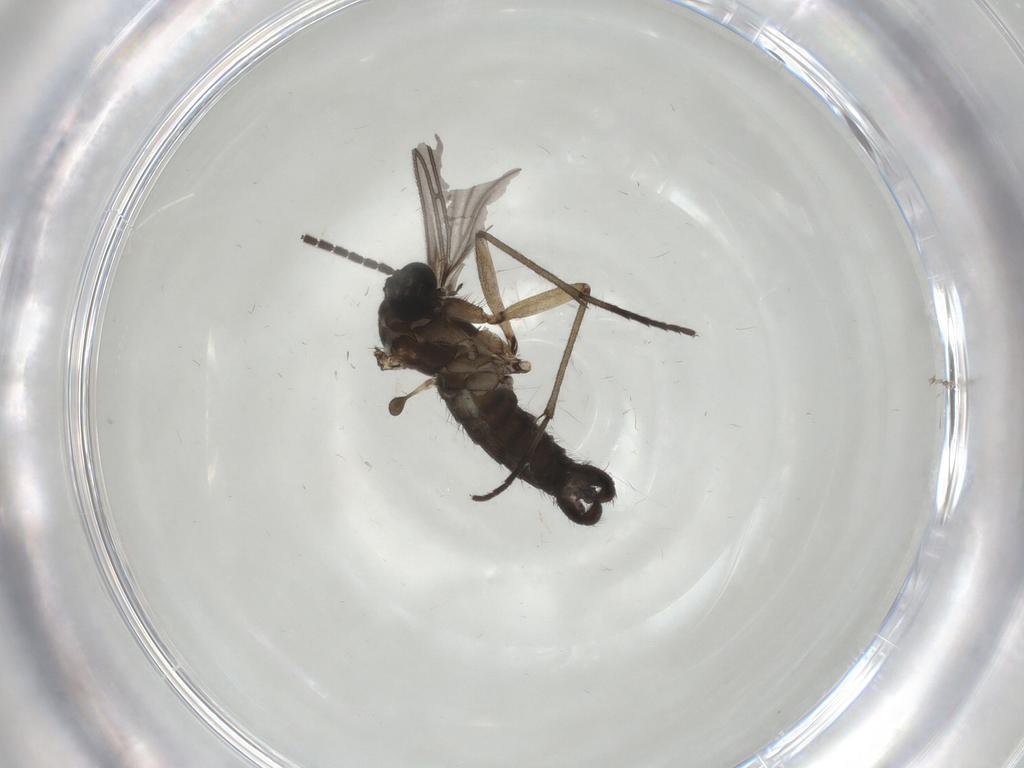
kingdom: Animalia
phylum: Arthropoda
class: Insecta
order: Diptera
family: Sciaridae
